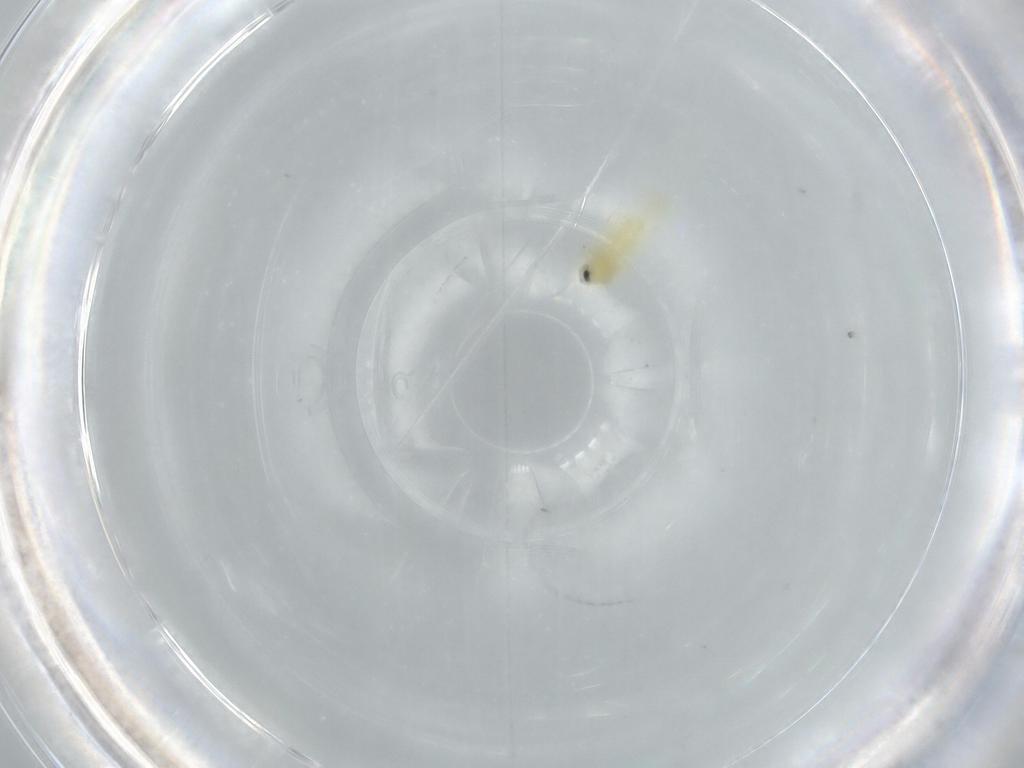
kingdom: Animalia
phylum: Arthropoda
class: Insecta
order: Hemiptera
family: Aleyrodidae
